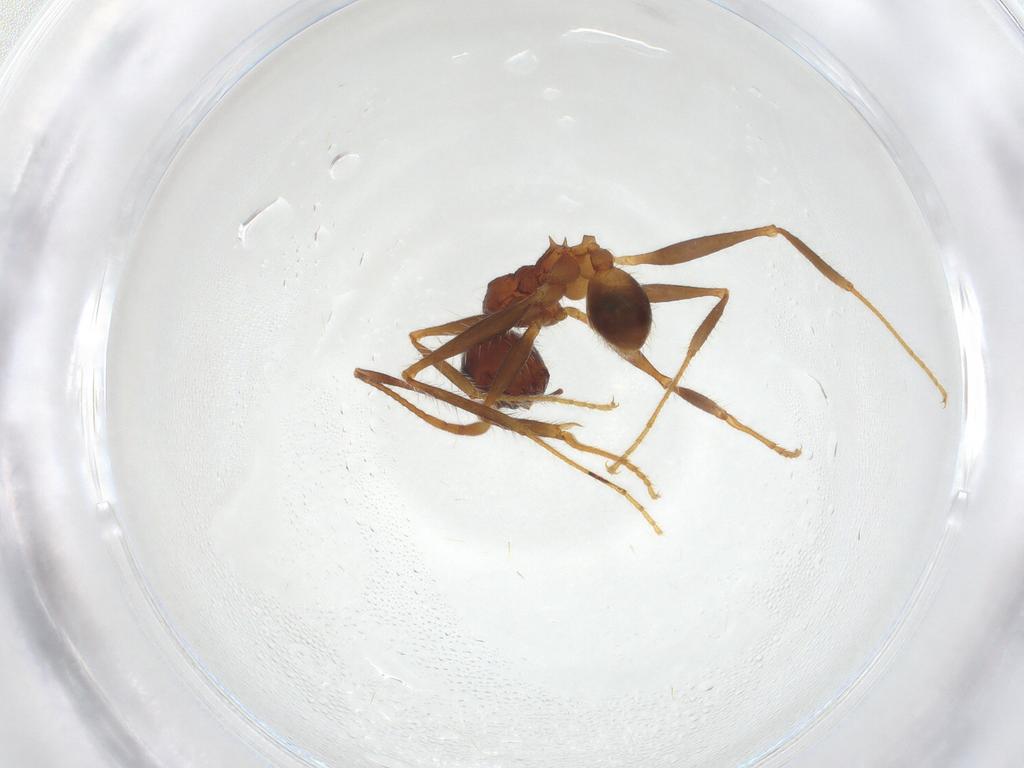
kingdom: Animalia
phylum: Arthropoda
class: Insecta
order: Hymenoptera
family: Formicidae
